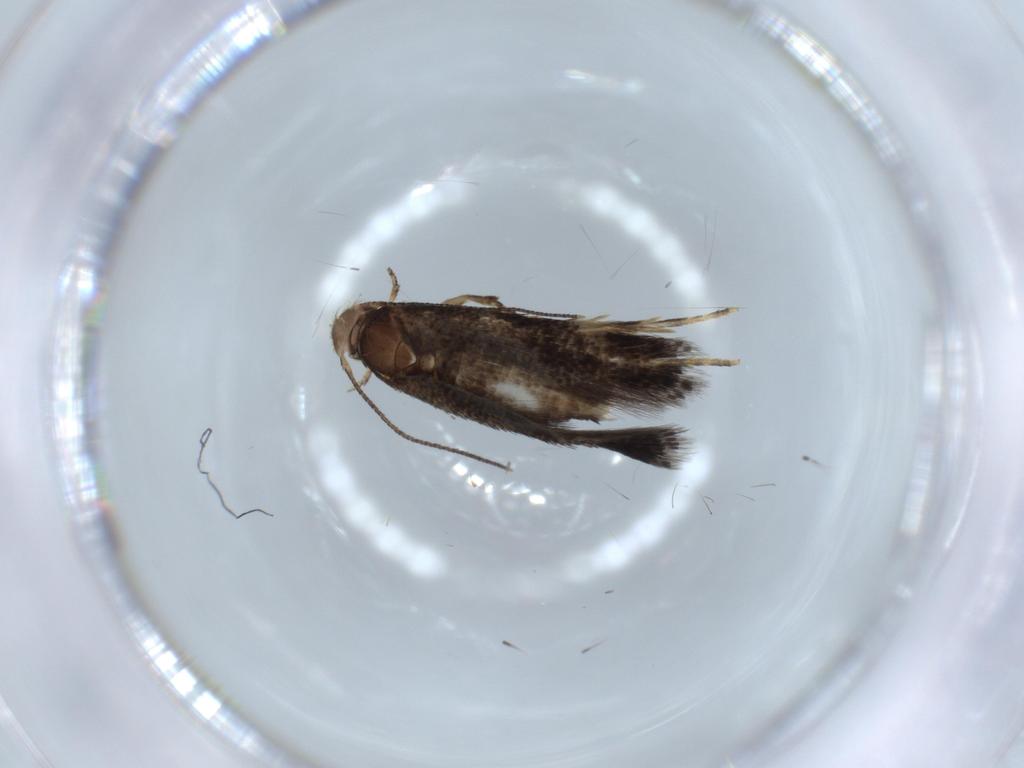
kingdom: Animalia
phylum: Arthropoda
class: Insecta
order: Lepidoptera
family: Gelechiidae
